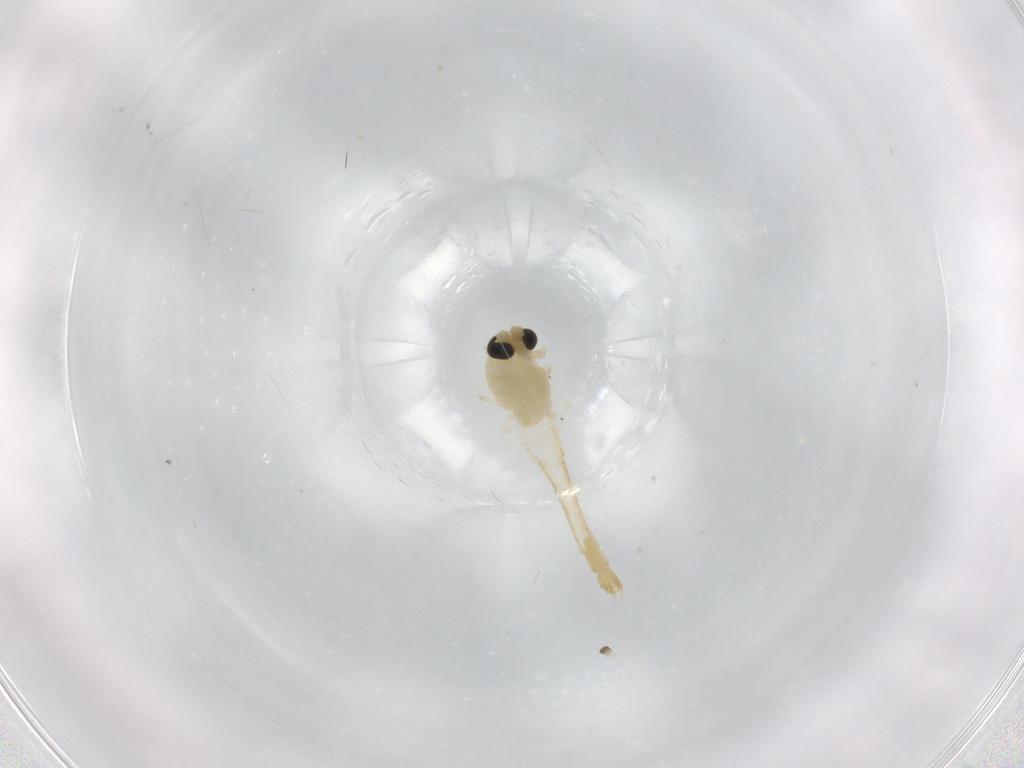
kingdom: Animalia
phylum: Arthropoda
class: Insecta
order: Diptera
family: Chironomidae
